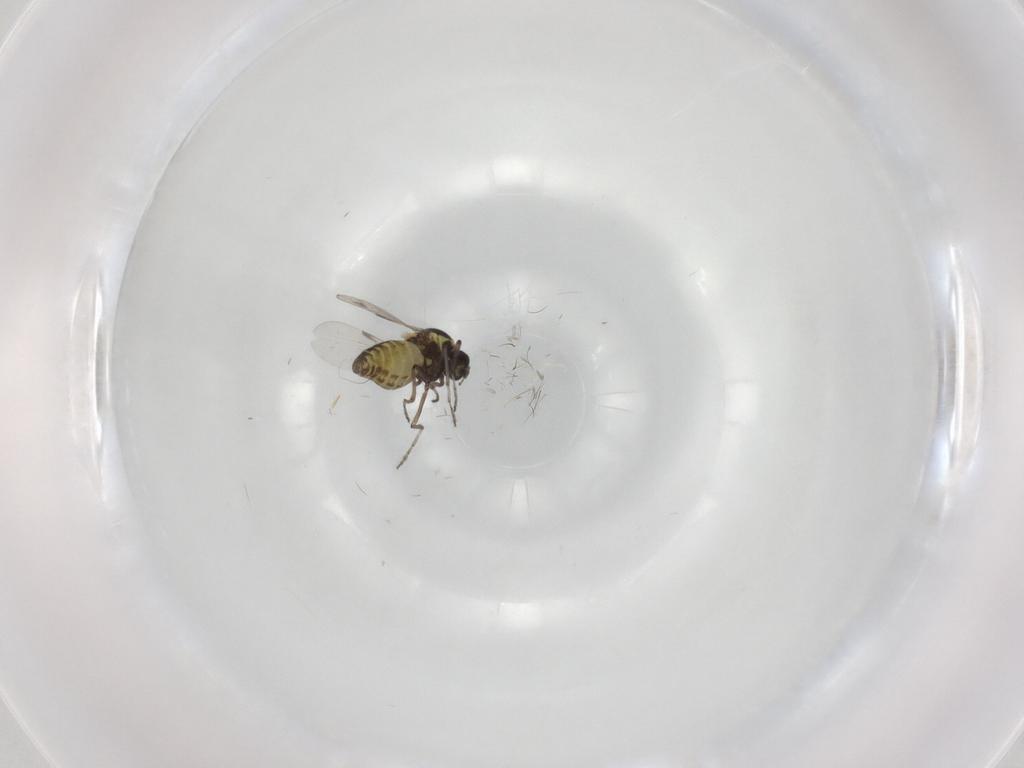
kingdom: Animalia
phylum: Arthropoda
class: Insecta
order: Diptera
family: Ceratopogonidae
